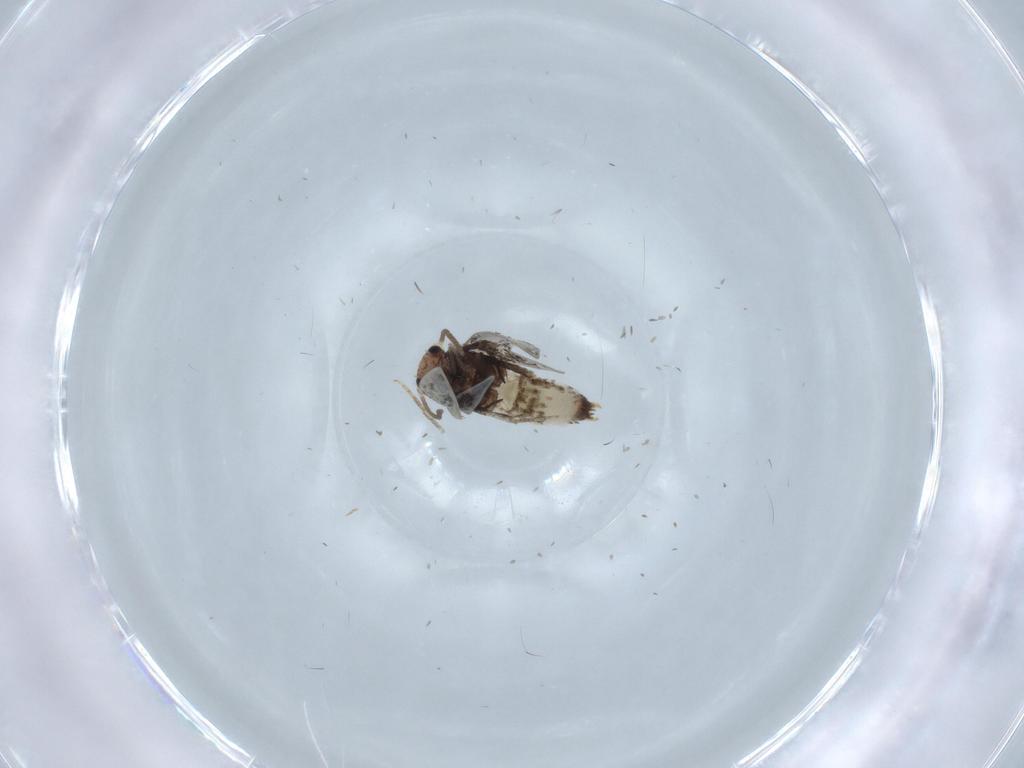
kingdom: Animalia
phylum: Arthropoda
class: Insecta
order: Lepidoptera
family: Nepticulidae
